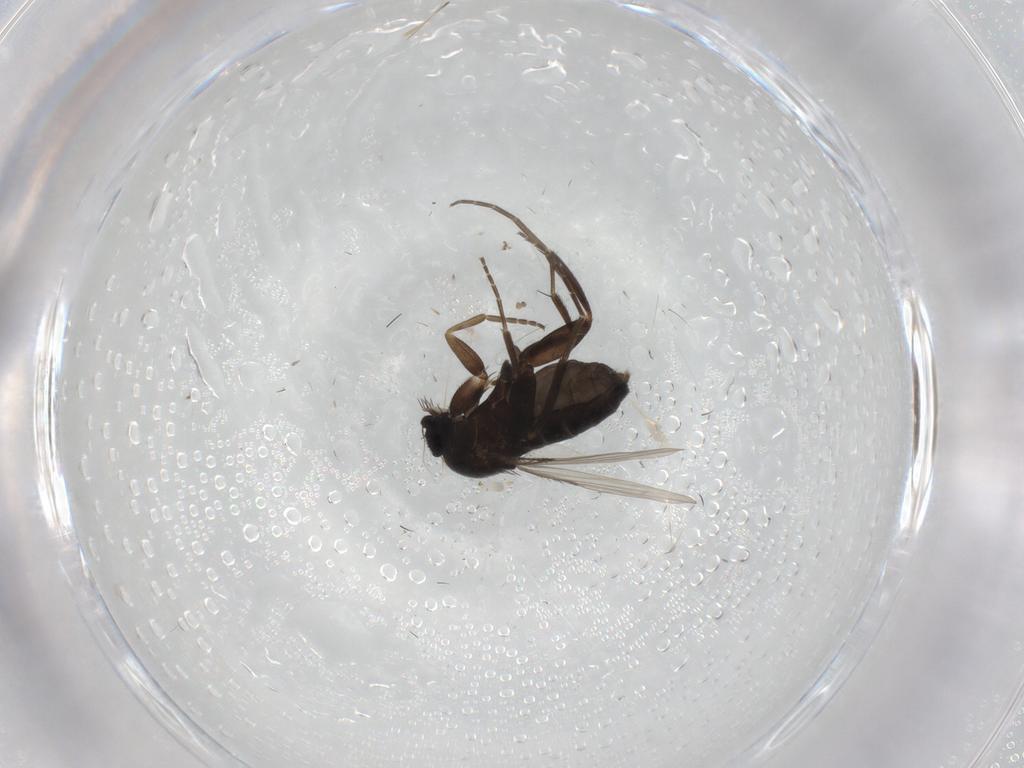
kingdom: Animalia
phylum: Arthropoda
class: Insecta
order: Diptera
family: Phoridae
